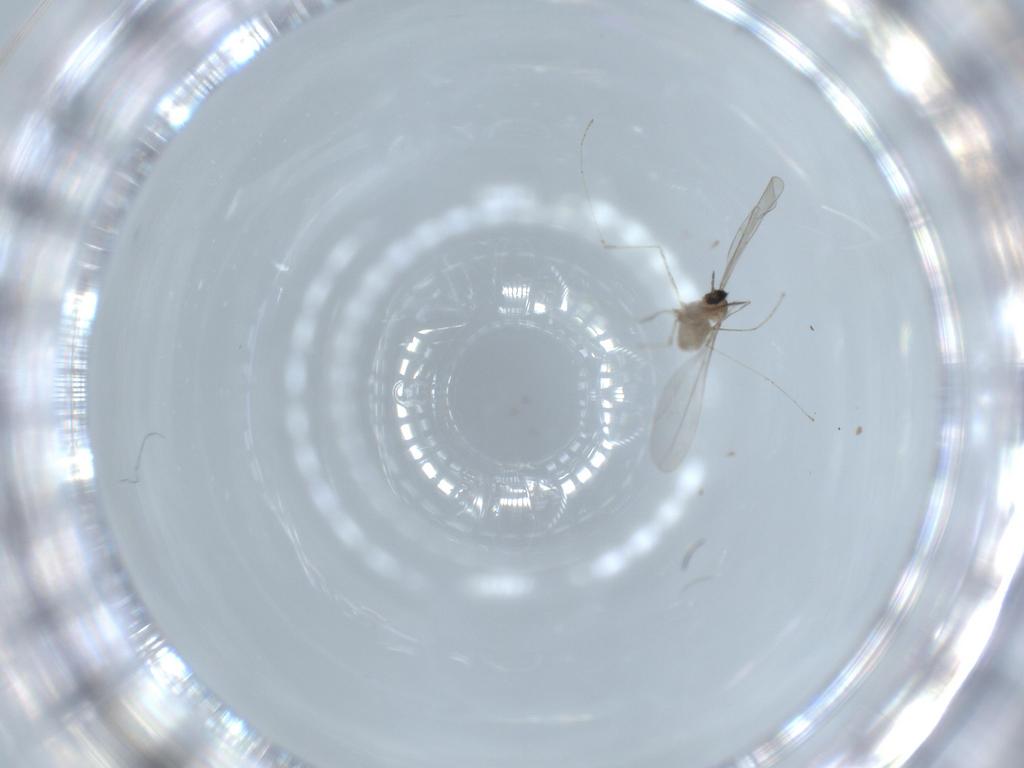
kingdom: Animalia
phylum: Arthropoda
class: Insecta
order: Diptera
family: Cecidomyiidae
